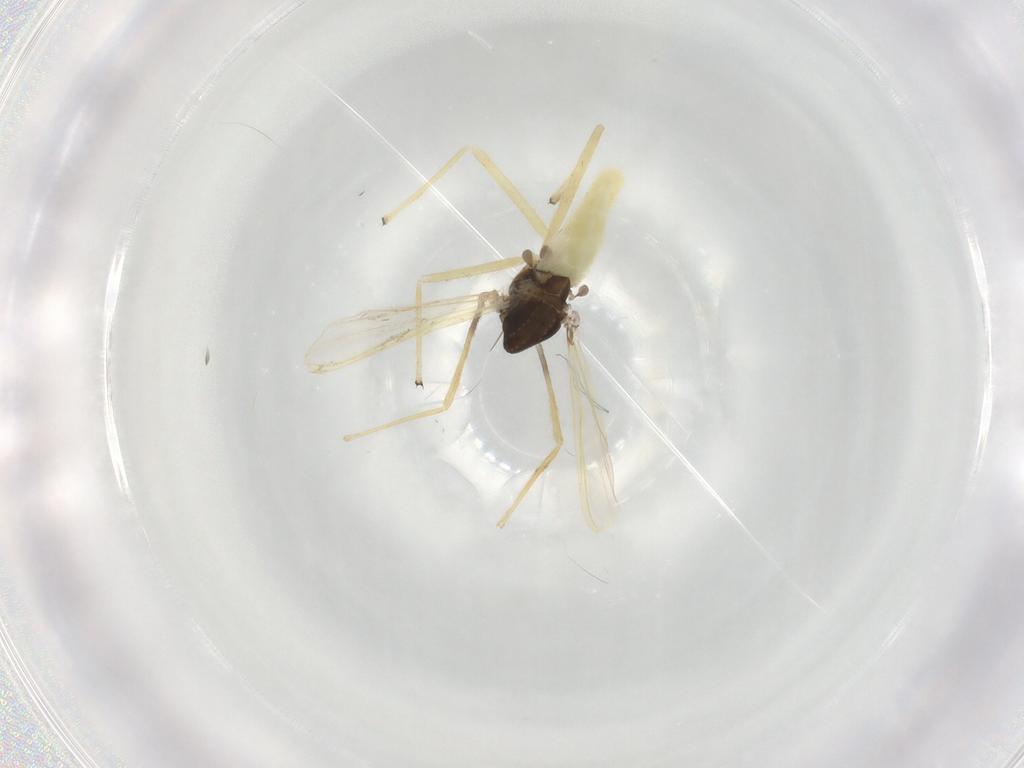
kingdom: Animalia
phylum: Arthropoda
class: Insecta
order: Diptera
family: Chironomidae
